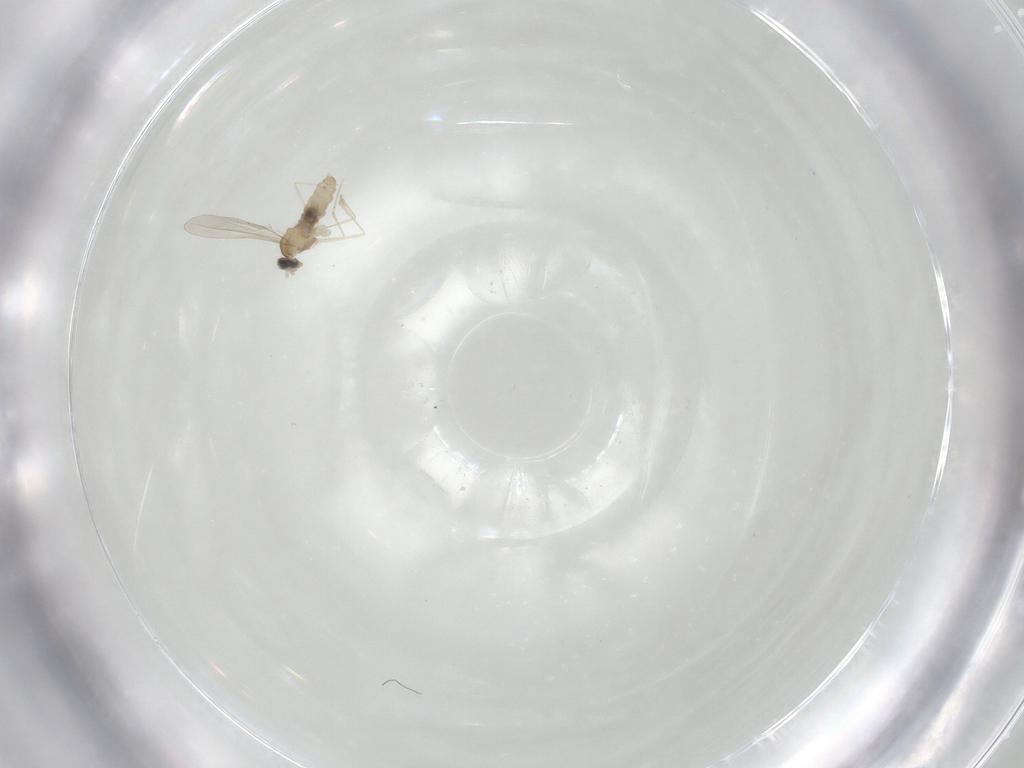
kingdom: Animalia
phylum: Arthropoda
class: Insecta
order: Diptera
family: Cecidomyiidae
